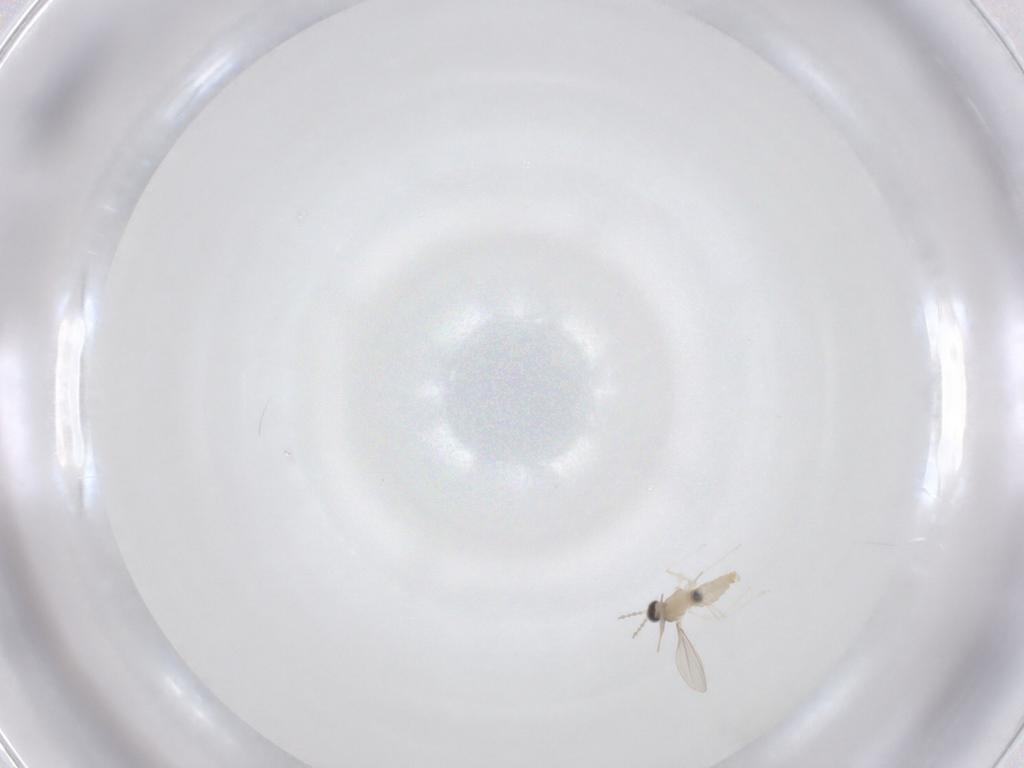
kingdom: Animalia
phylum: Arthropoda
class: Insecta
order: Diptera
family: Cecidomyiidae
